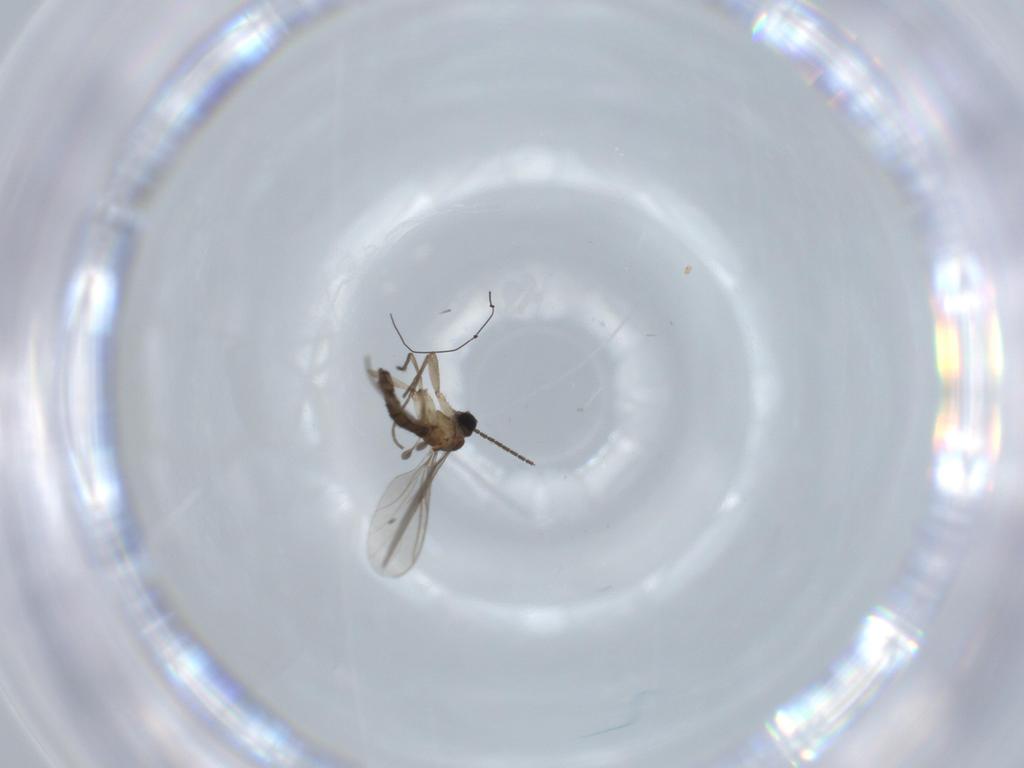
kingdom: Animalia
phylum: Arthropoda
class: Insecta
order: Diptera
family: Sciaridae
